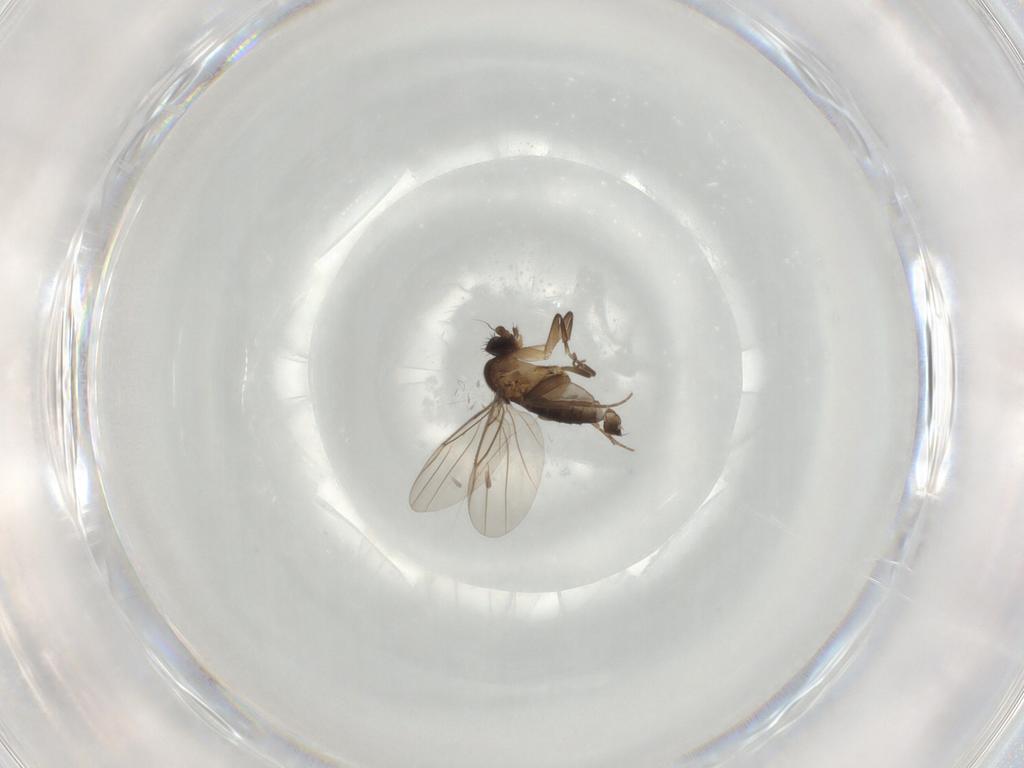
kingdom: Animalia
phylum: Arthropoda
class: Insecta
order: Diptera
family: Phoridae
